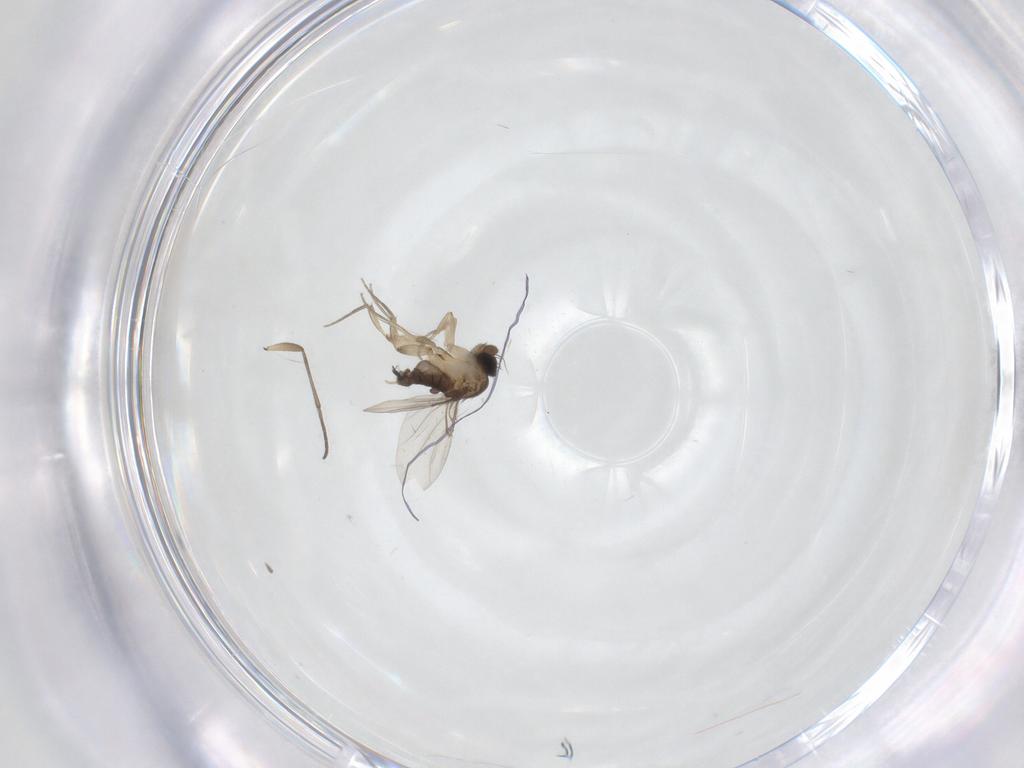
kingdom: Animalia
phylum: Arthropoda
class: Insecta
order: Diptera
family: Phoridae
